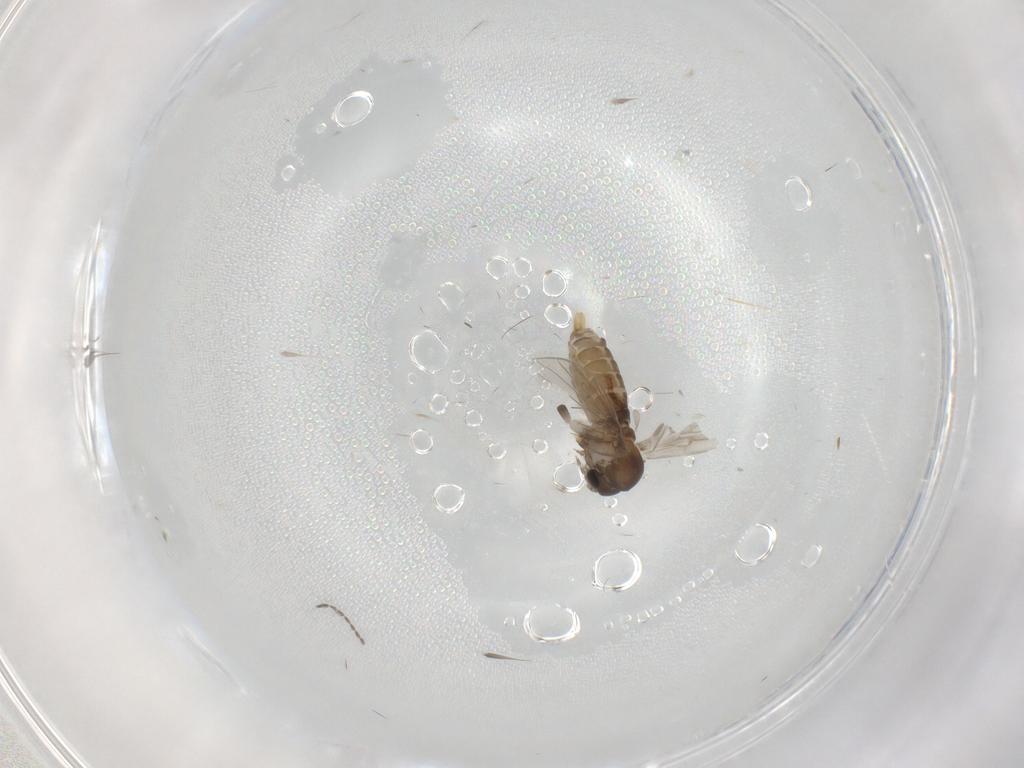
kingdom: Animalia
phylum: Arthropoda
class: Insecta
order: Diptera
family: Psychodidae
